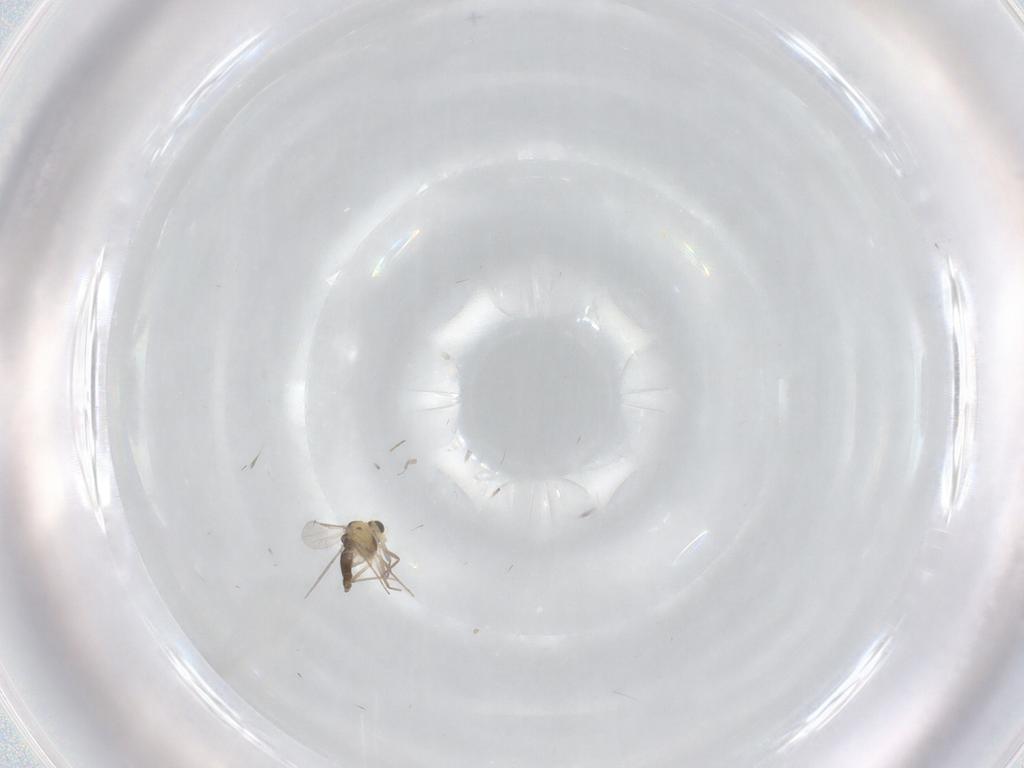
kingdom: Animalia
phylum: Arthropoda
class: Insecta
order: Diptera
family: Chironomidae
